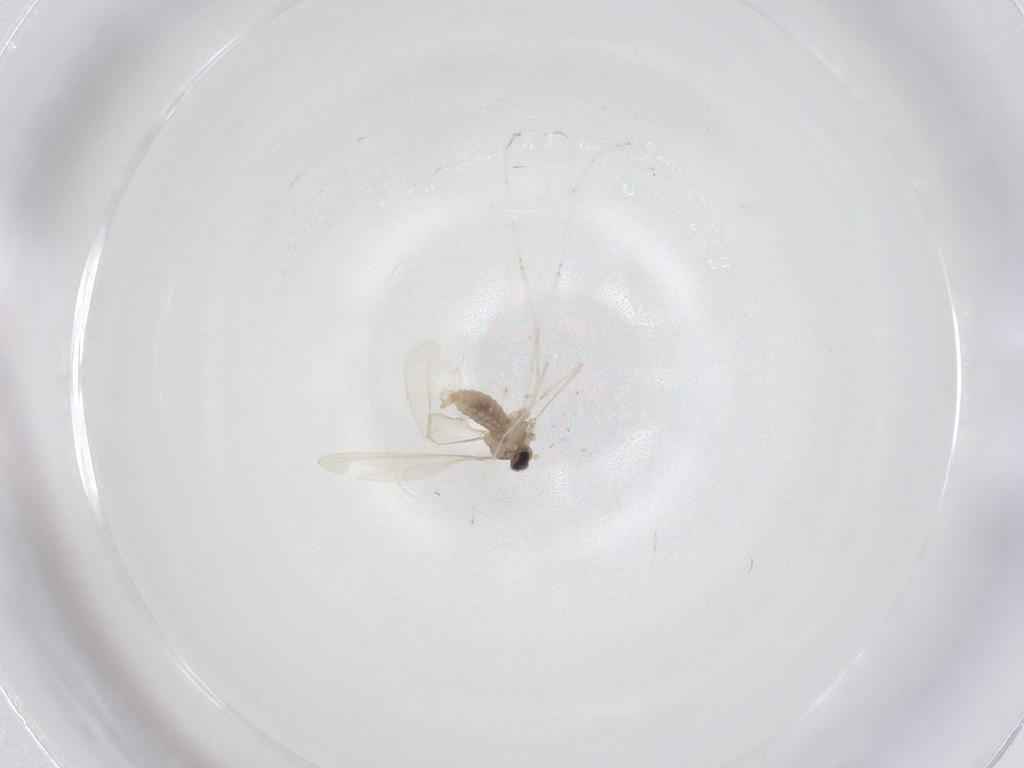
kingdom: Animalia
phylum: Arthropoda
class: Insecta
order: Diptera
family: Cecidomyiidae
